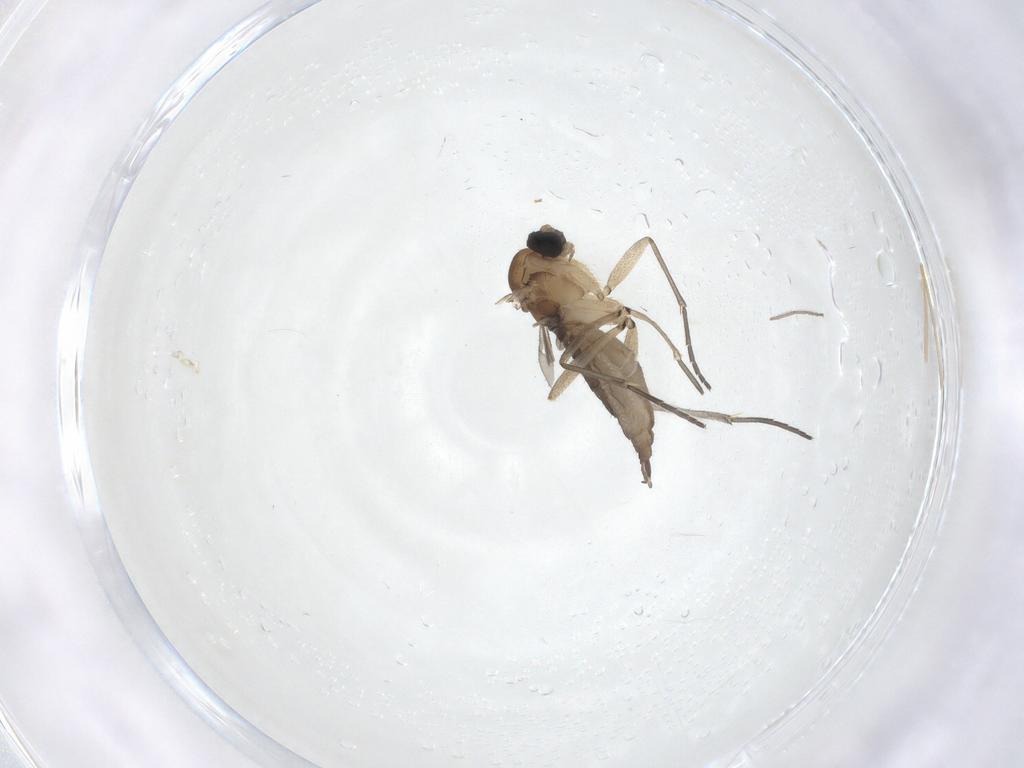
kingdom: Animalia
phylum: Arthropoda
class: Insecta
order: Diptera
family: Sciaridae
